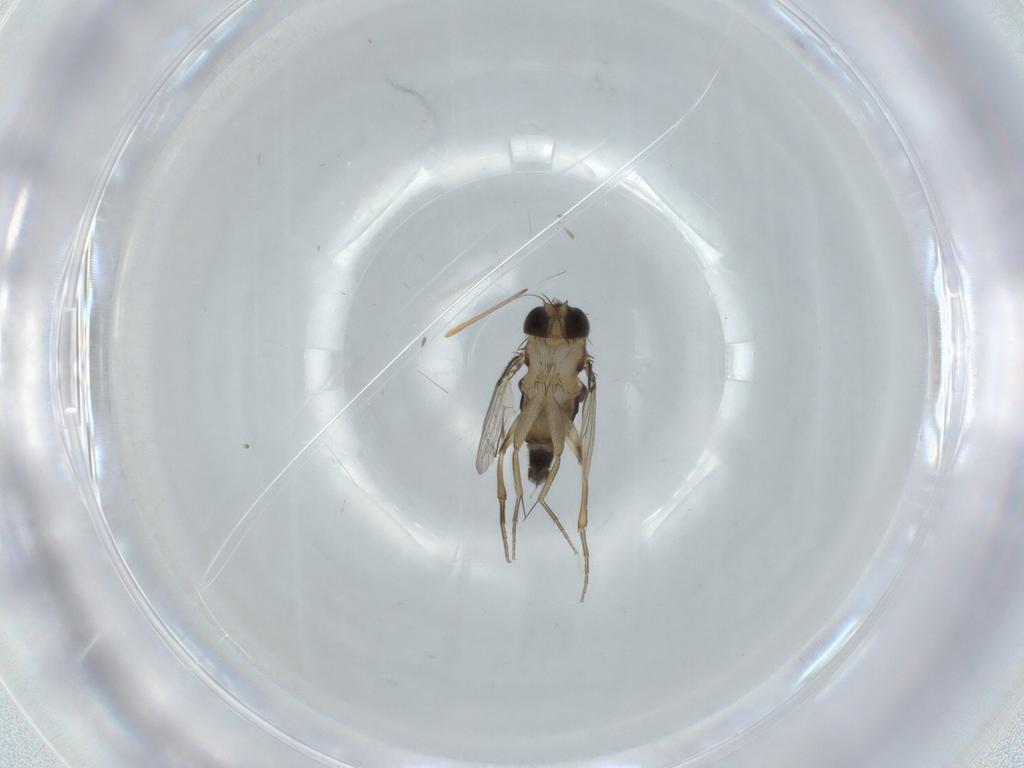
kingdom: Animalia
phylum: Arthropoda
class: Insecta
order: Diptera
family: Phoridae
